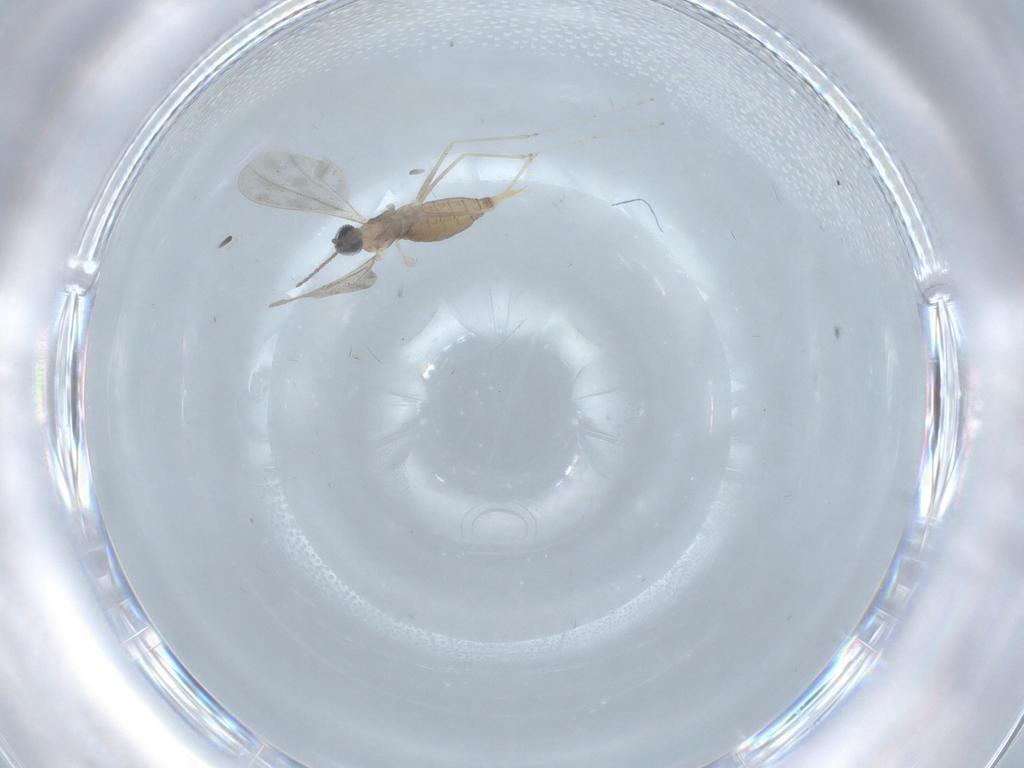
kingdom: Animalia
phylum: Arthropoda
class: Insecta
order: Diptera
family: Cecidomyiidae
